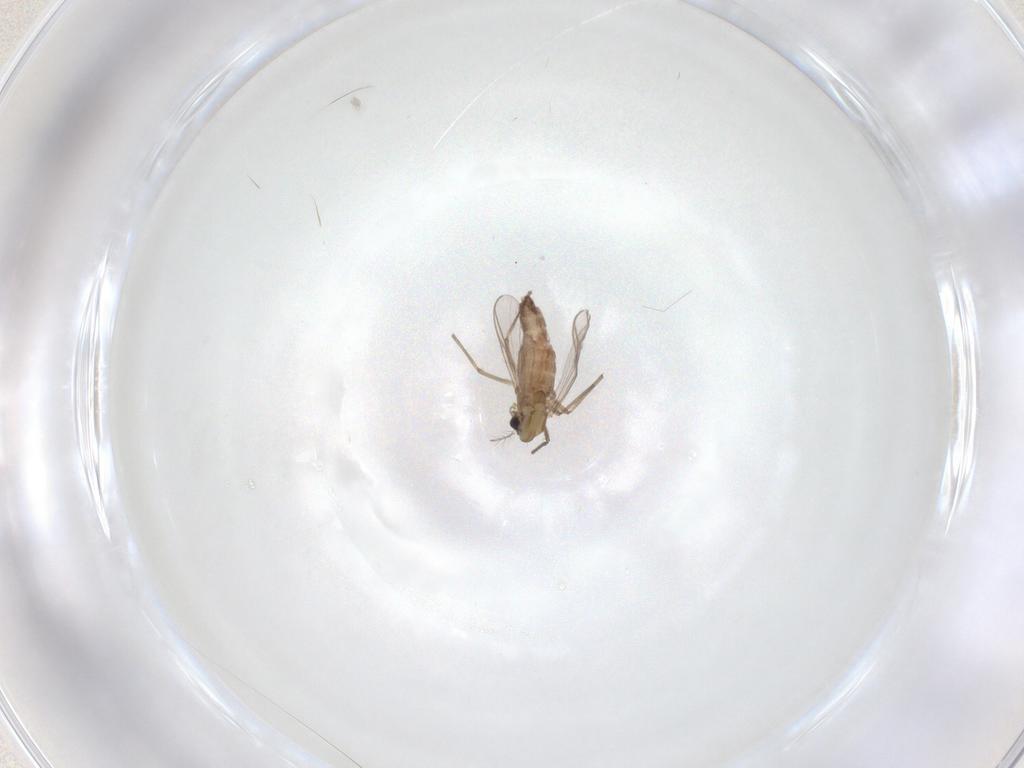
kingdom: Animalia
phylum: Arthropoda
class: Insecta
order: Diptera
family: Chironomidae
